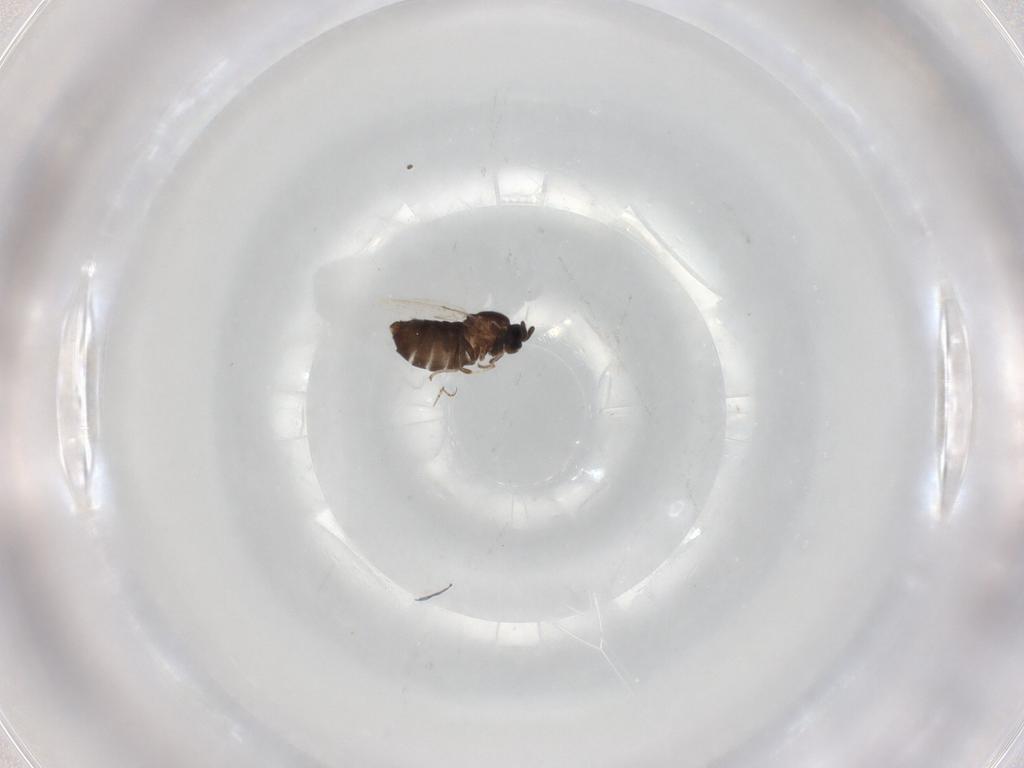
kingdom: Animalia
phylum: Arthropoda
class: Insecta
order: Diptera
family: Scatopsidae
